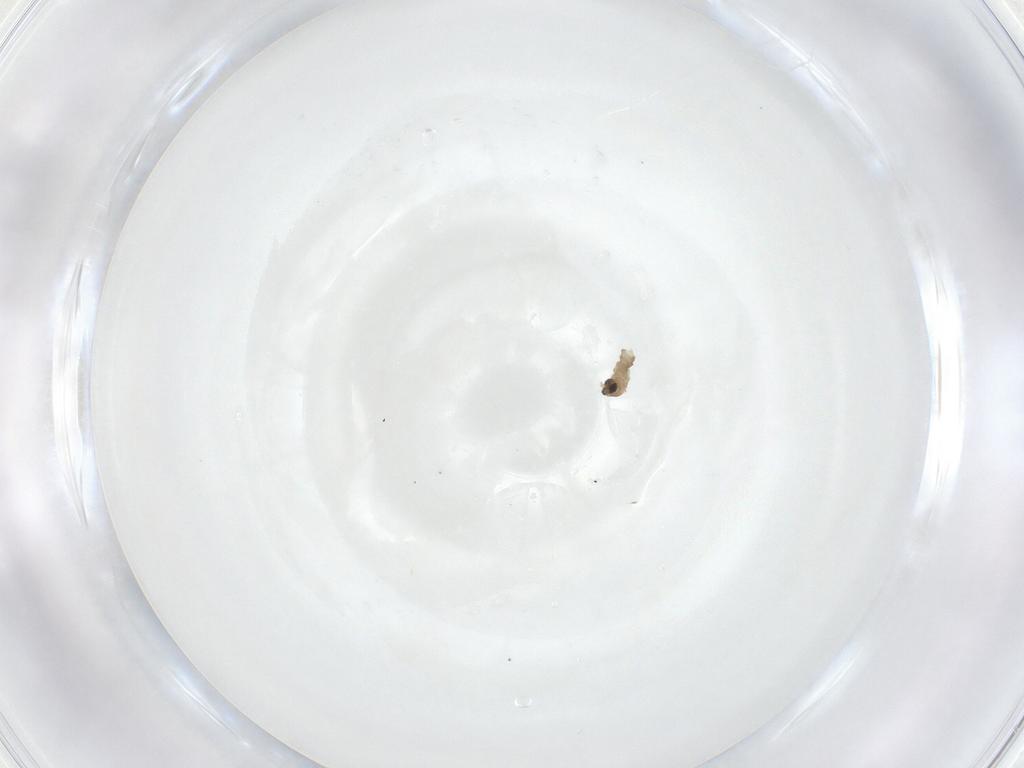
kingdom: Animalia
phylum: Arthropoda
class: Insecta
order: Diptera
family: Cecidomyiidae
